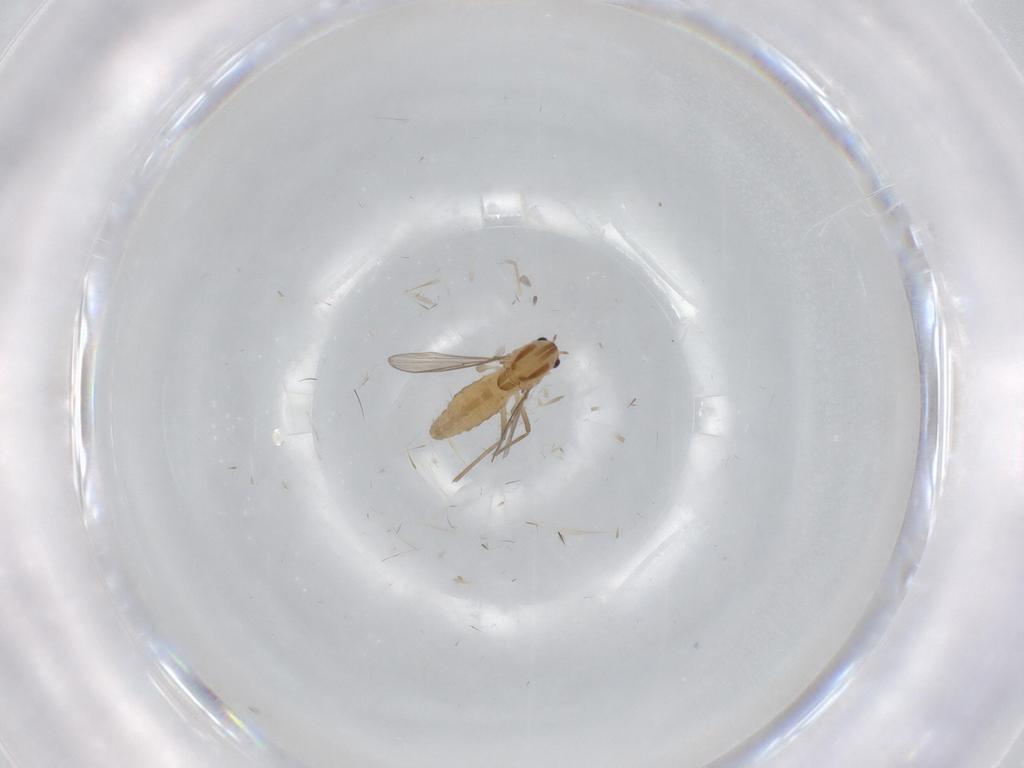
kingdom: Animalia
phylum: Arthropoda
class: Insecta
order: Diptera
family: Chironomidae
